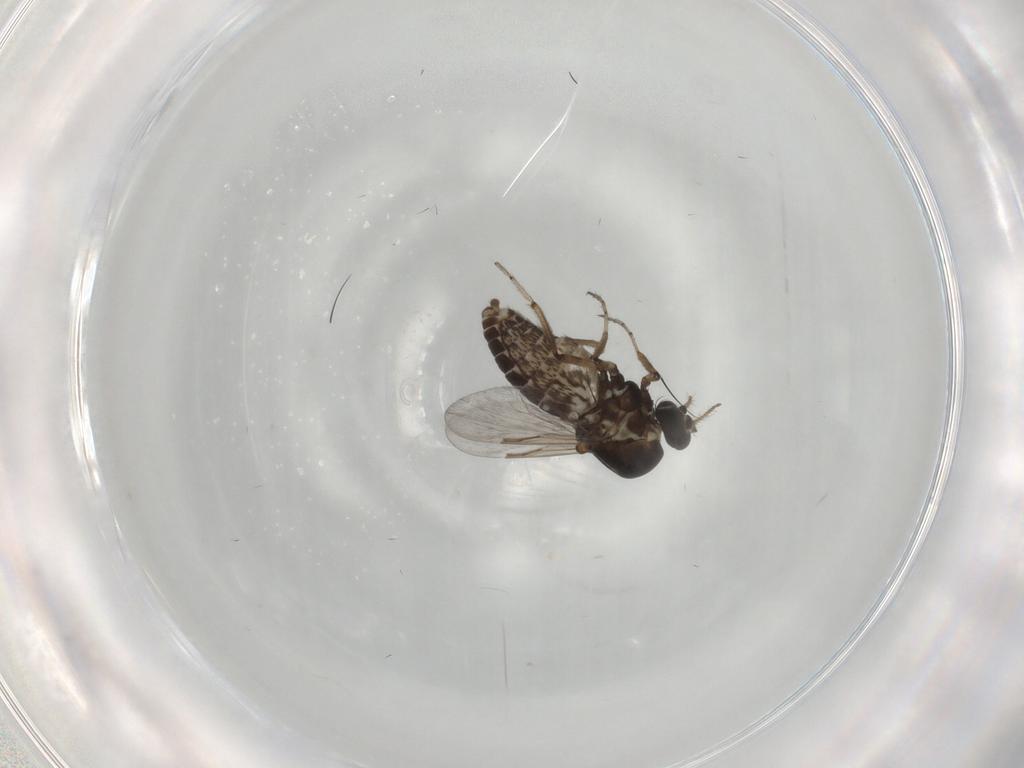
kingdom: Animalia
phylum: Arthropoda
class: Insecta
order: Diptera
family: Ceratopogonidae
